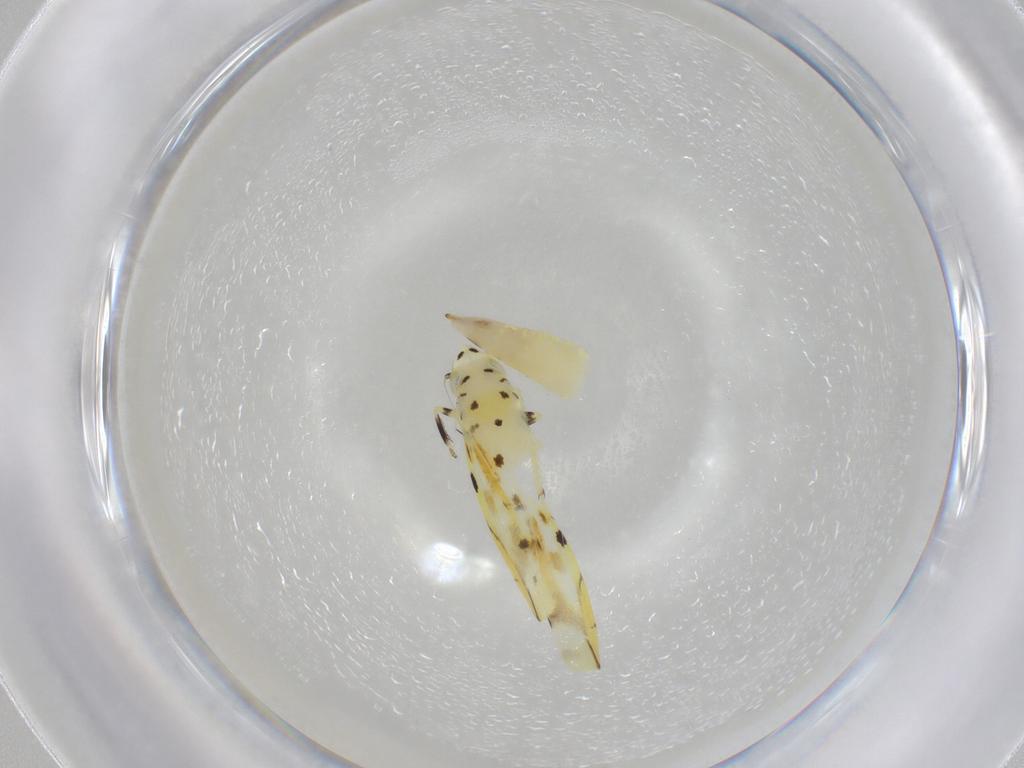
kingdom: Animalia
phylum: Arthropoda
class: Insecta
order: Hemiptera
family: Cicadellidae
